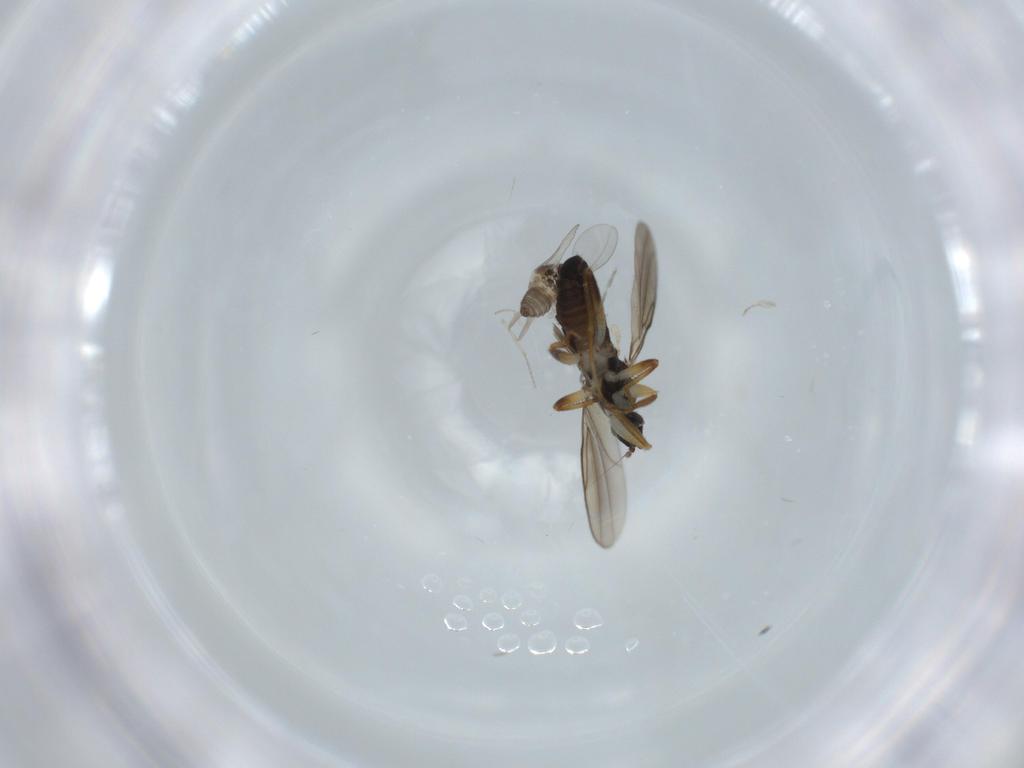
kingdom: Animalia
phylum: Arthropoda
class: Insecta
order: Diptera
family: Cecidomyiidae
